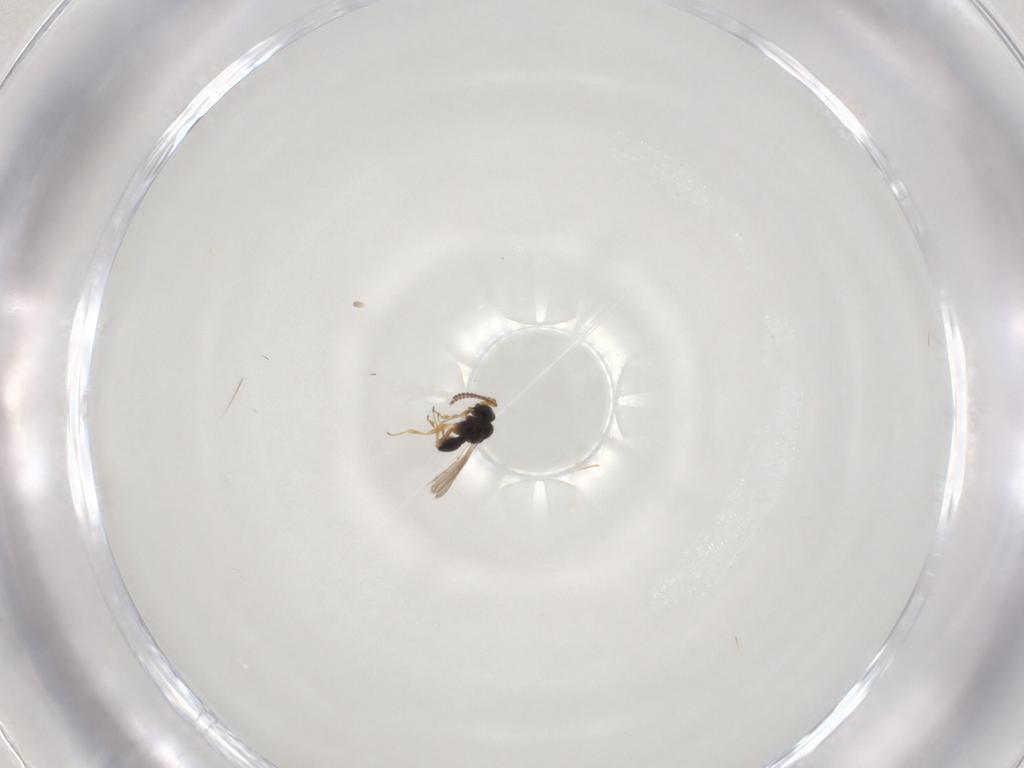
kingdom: Animalia
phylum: Arthropoda
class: Insecta
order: Hymenoptera
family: Scelionidae
